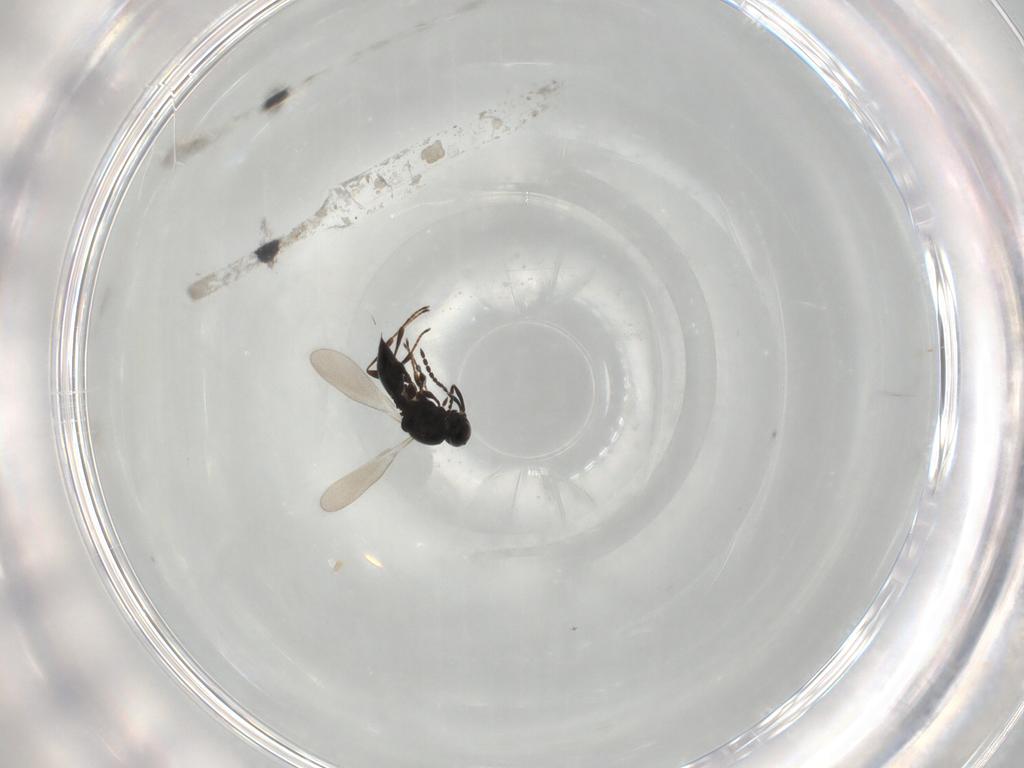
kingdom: Animalia
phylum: Arthropoda
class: Insecta
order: Hymenoptera
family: Platygastridae
